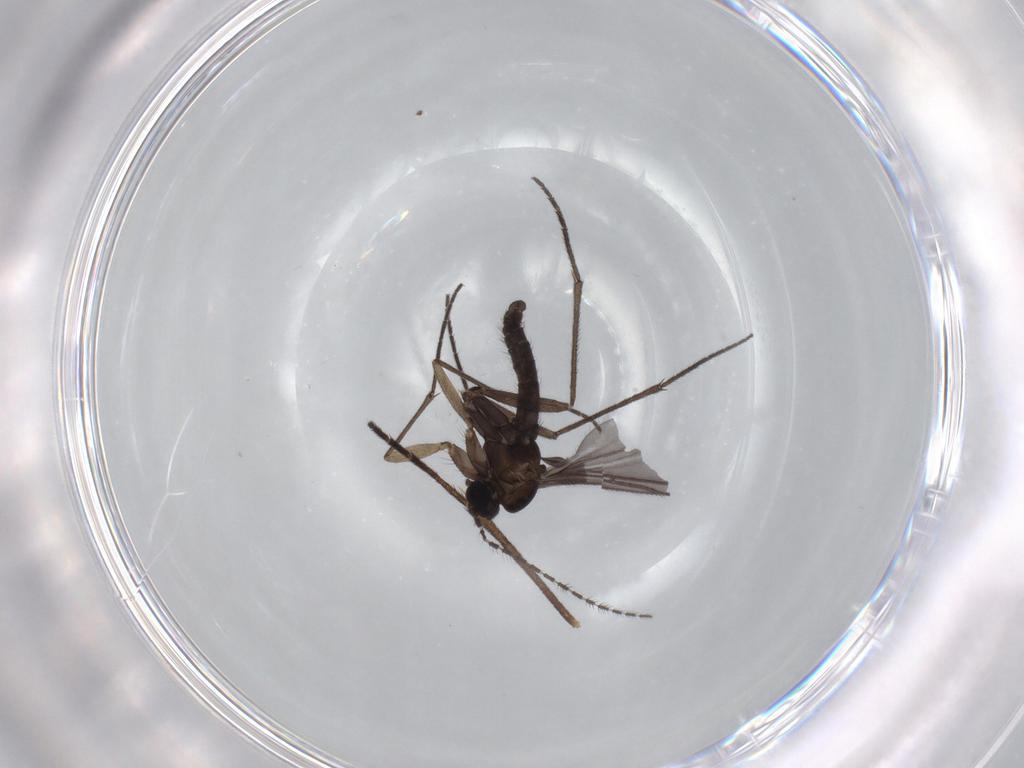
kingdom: Animalia
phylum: Arthropoda
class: Insecta
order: Diptera
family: Sciaridae
